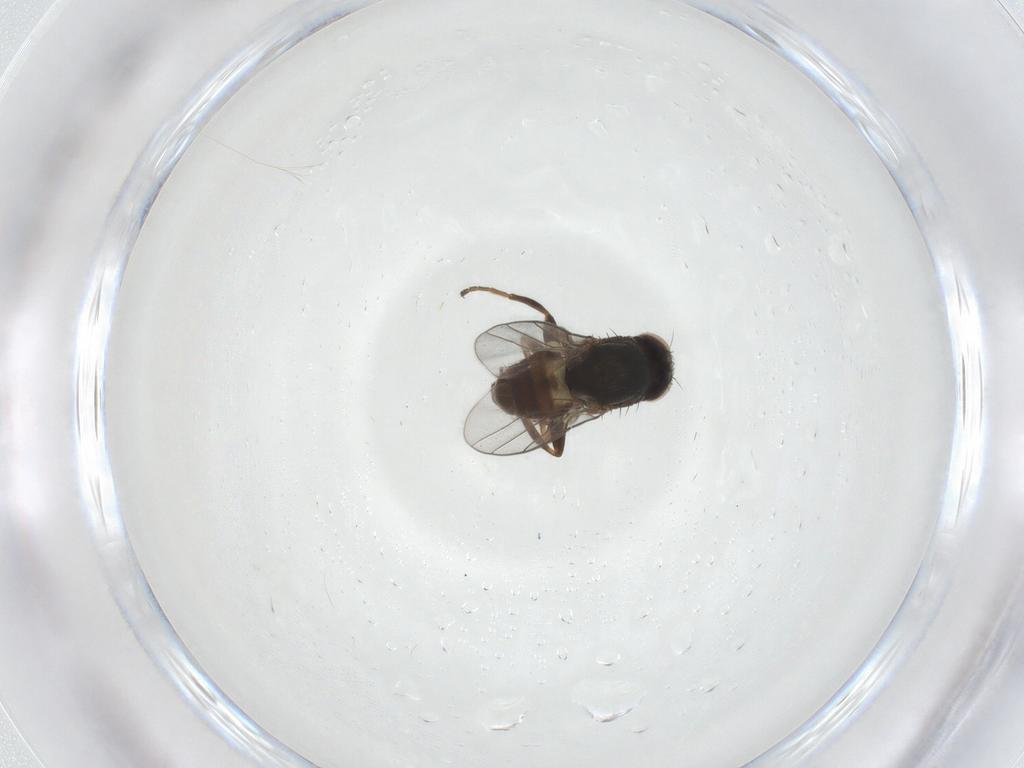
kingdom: Animalia
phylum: Arthropoda
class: Insecta
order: Diptera
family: Chloropidae
